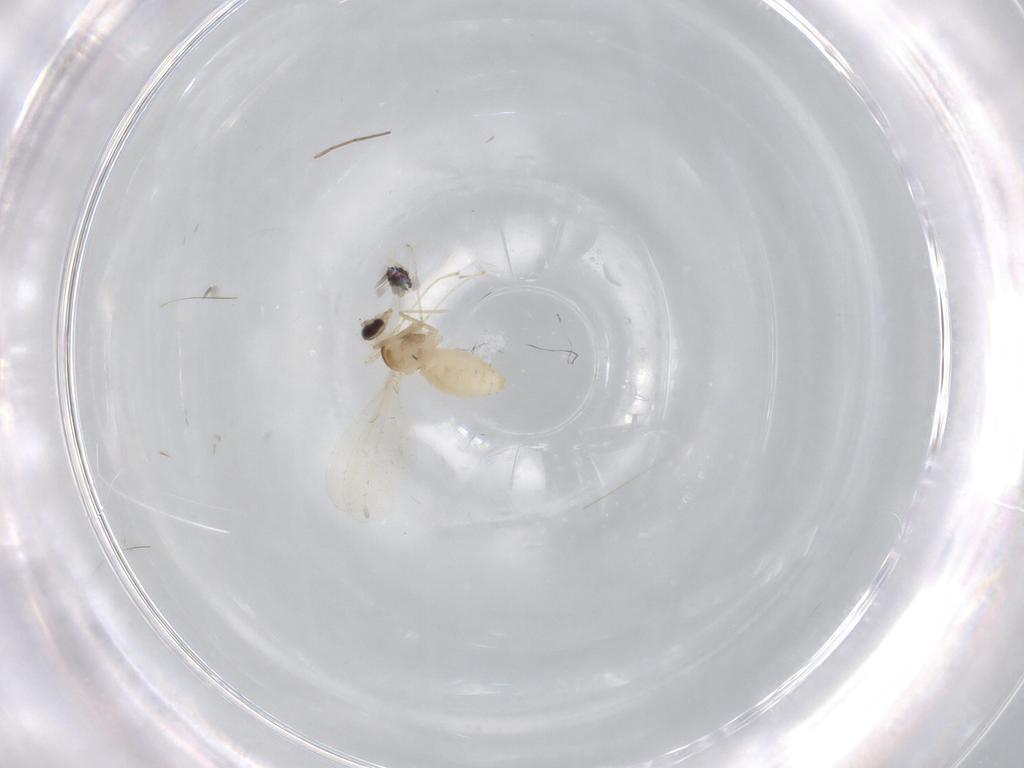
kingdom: Animalia
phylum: Arthropoda
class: Insecta
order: Diptera
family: Cecidomyiidae
